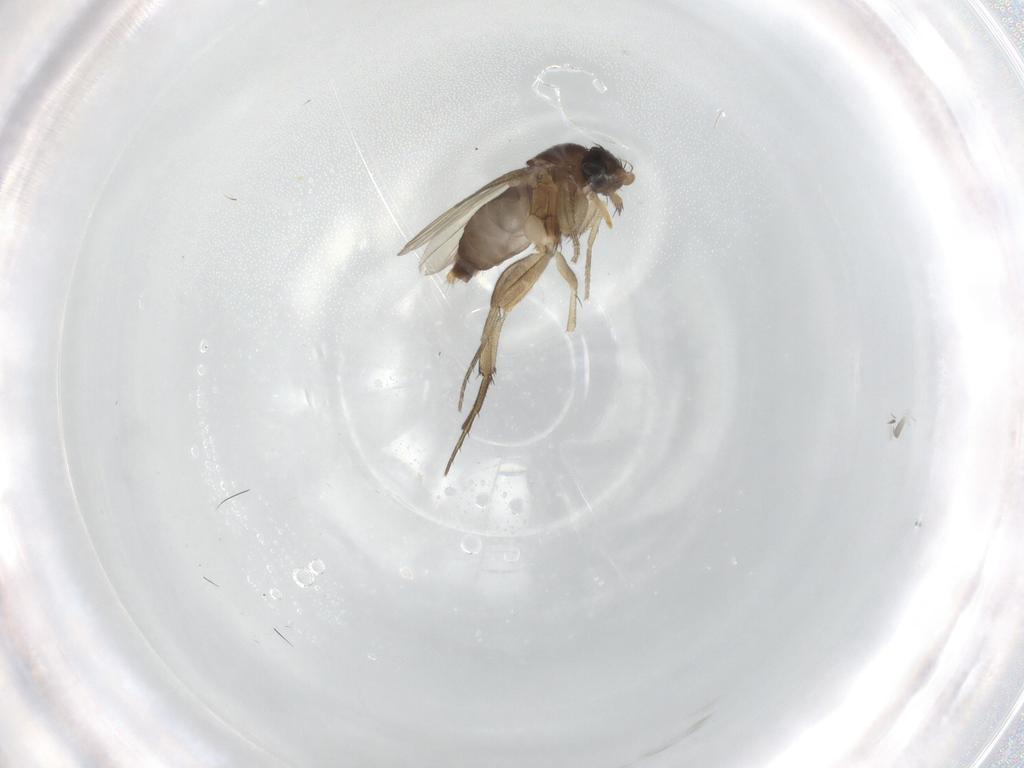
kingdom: Animalia
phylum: Arthropoda
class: Insecta
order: Diptera
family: Phoridae
